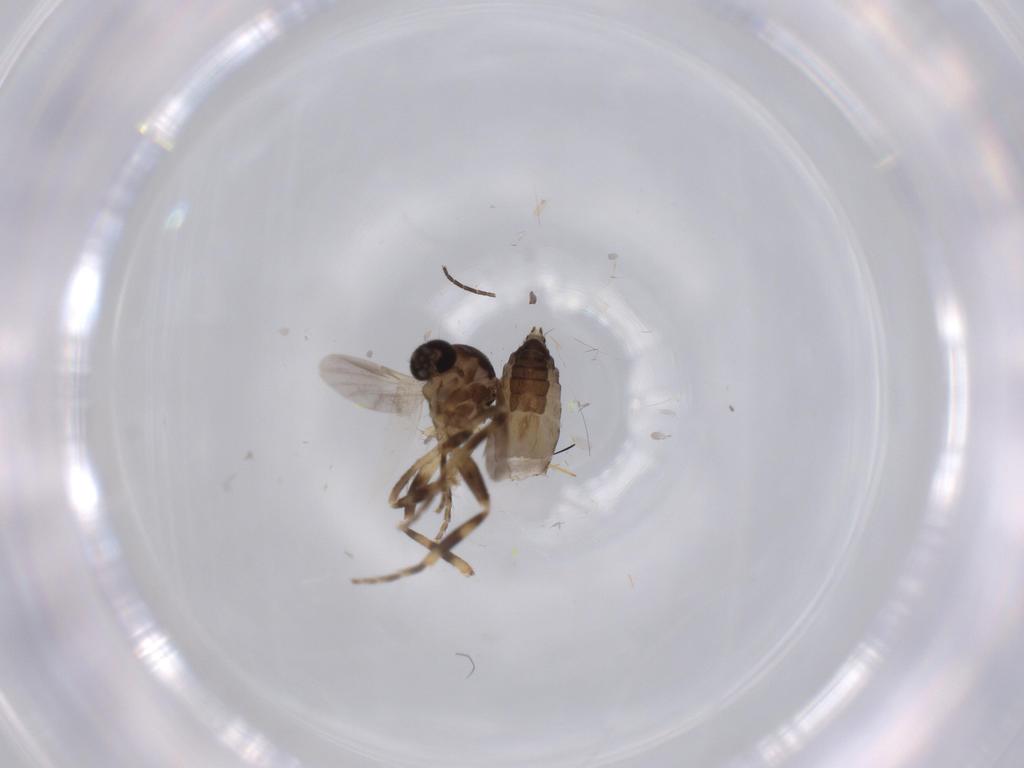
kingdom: Animalia
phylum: Arthropoda
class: Insecta
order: Diptera
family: Ceratopogonidae
